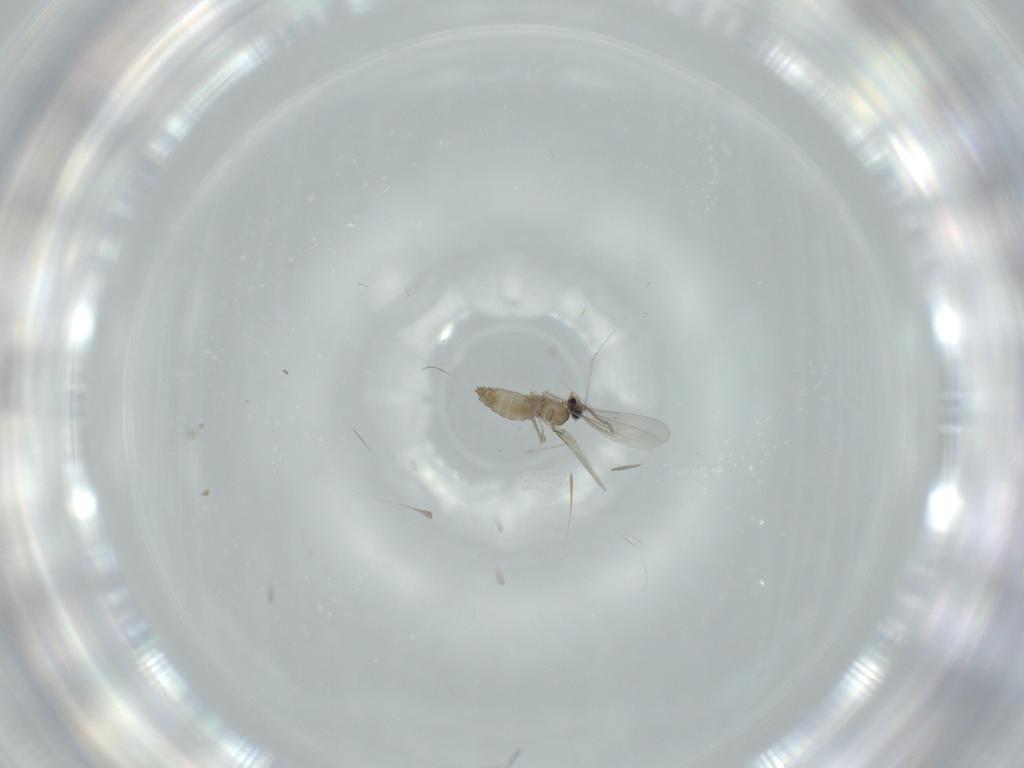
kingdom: Animalia
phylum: Arthropoda
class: Insecta
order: Diptera
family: Cecidomyiidae
